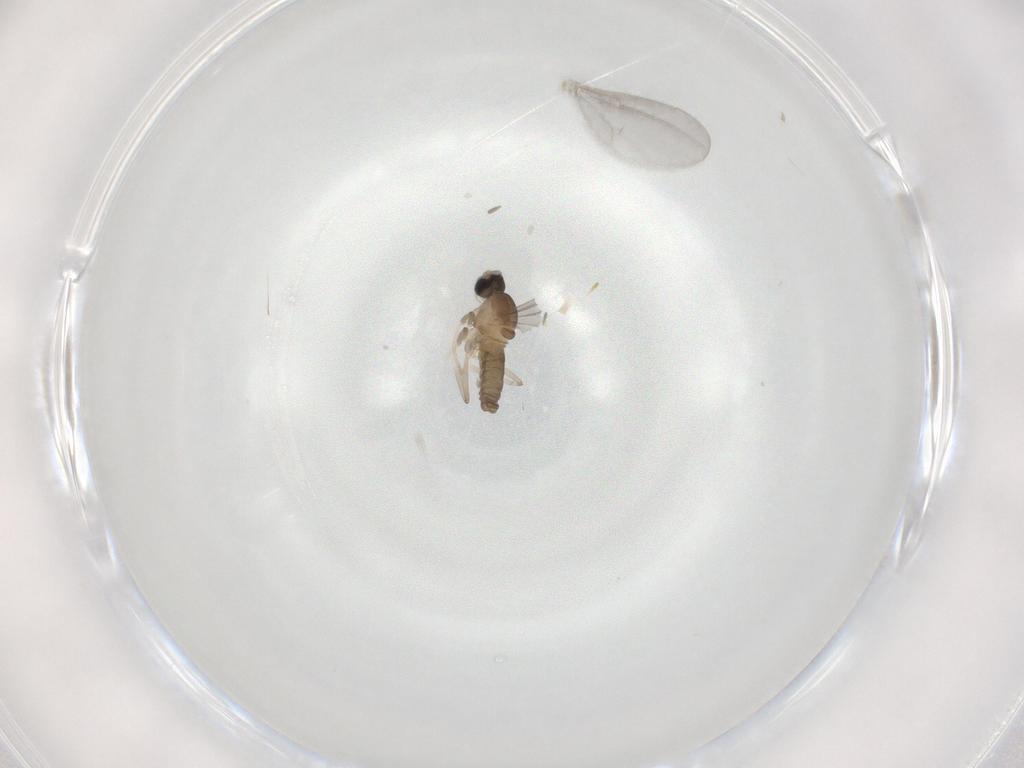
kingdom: Animalia
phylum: Arthropoda
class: Insecta
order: Diptera
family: Cecidomyiidae
